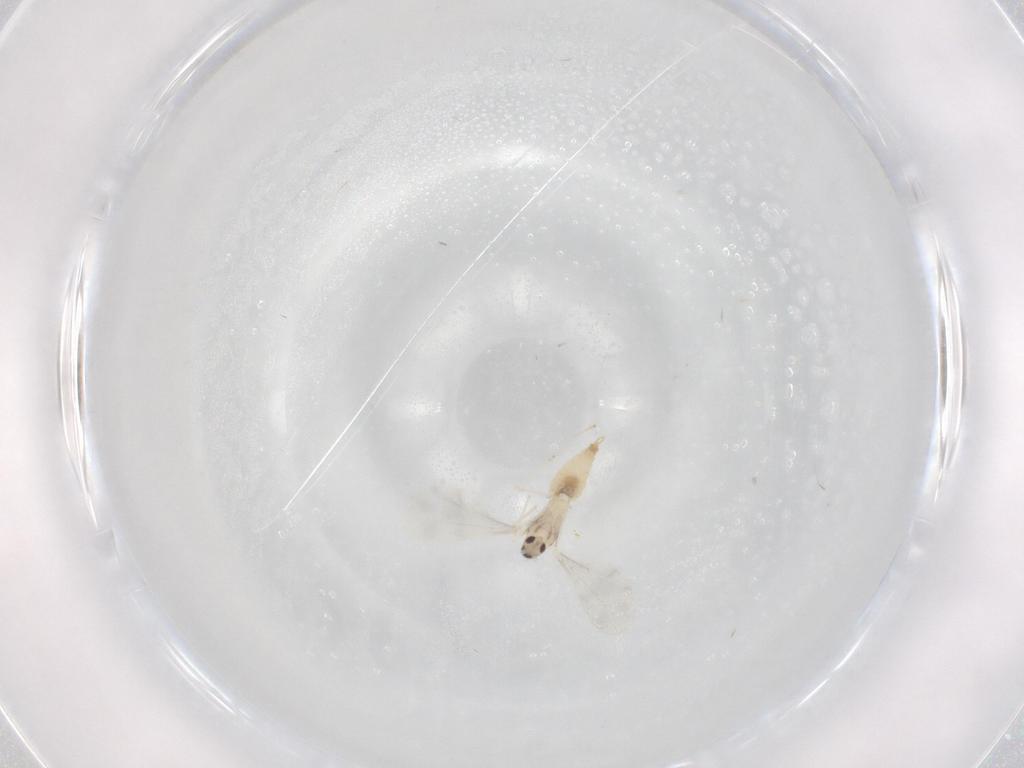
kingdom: Animalia
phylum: Arthropoda
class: Insecta
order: Diptera
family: Cecidomyiidae
